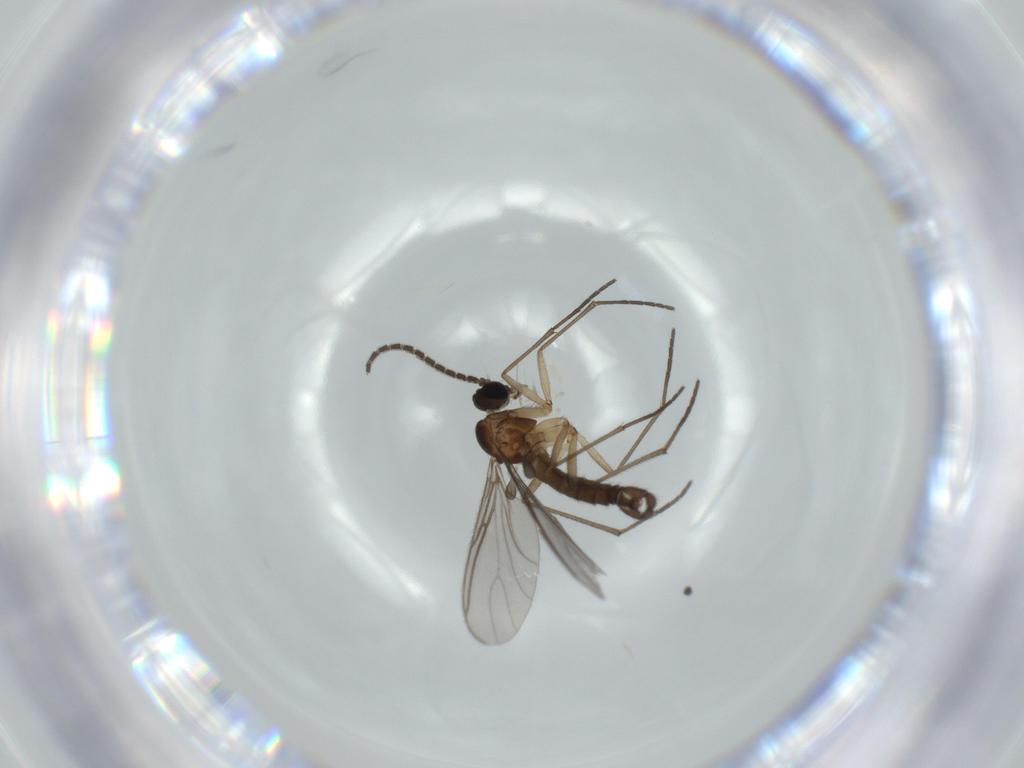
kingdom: Animalia
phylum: Arthropoda
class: Insecta
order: Diptera
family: Sciaridae
